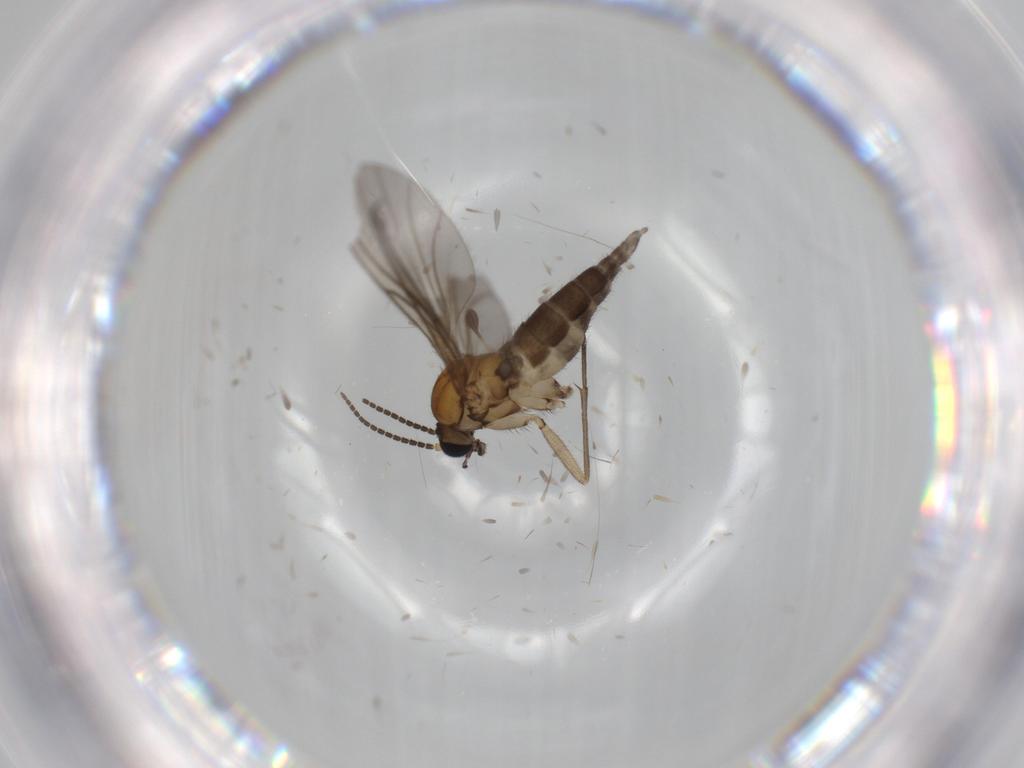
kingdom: Animalia
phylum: Arthropoda
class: Insecta
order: Diptera
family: Sciaridae
